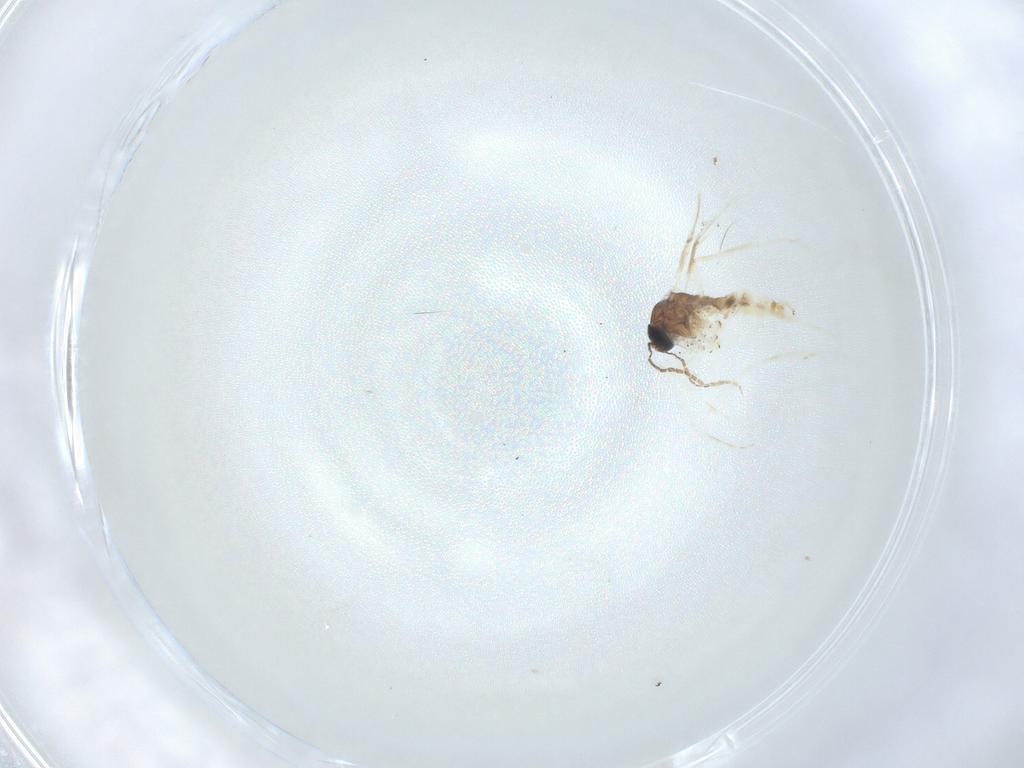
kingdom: Animalia
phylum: Arthropoda
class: Insecta
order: Diptera
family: Sciaridae
